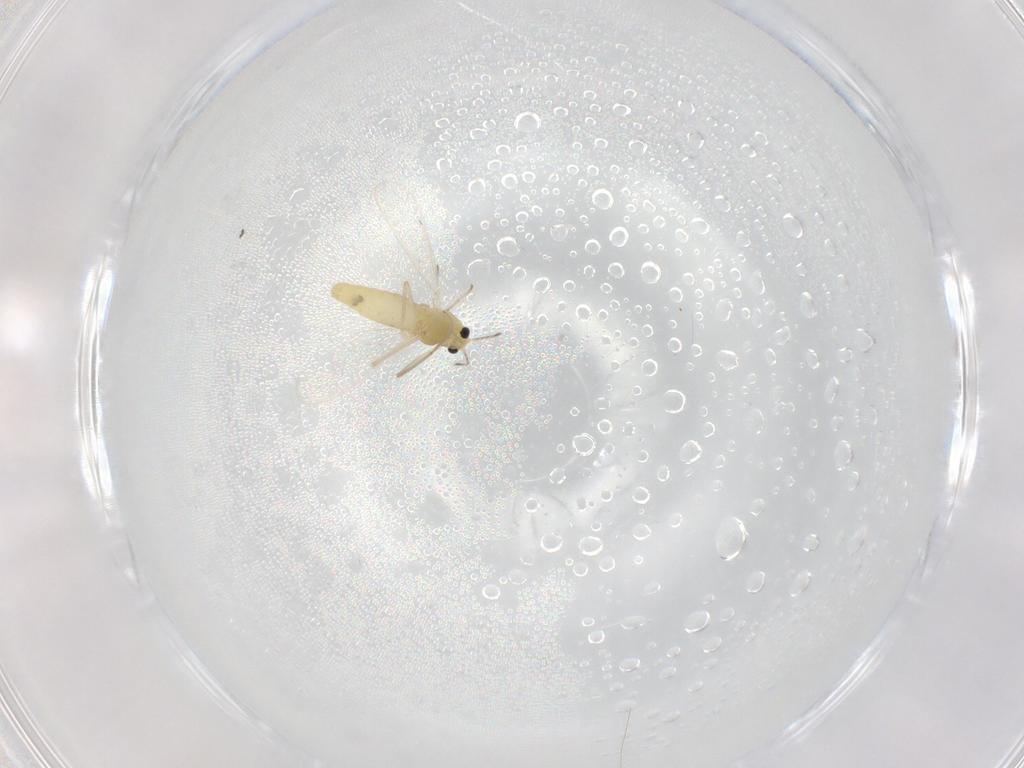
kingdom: Animalia
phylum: Arthropoda
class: Insecta
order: Diptera
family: Chironomidae
